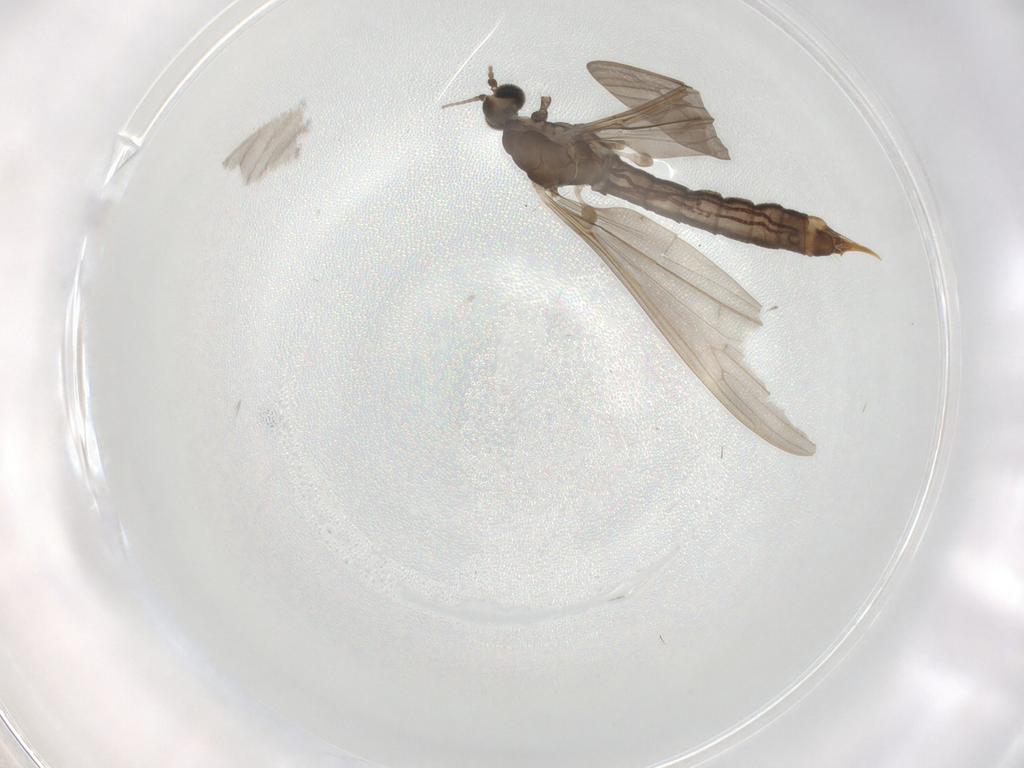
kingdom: Animalia
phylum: Arthropoda
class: Insecta
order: Diptera
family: Limoniidae
